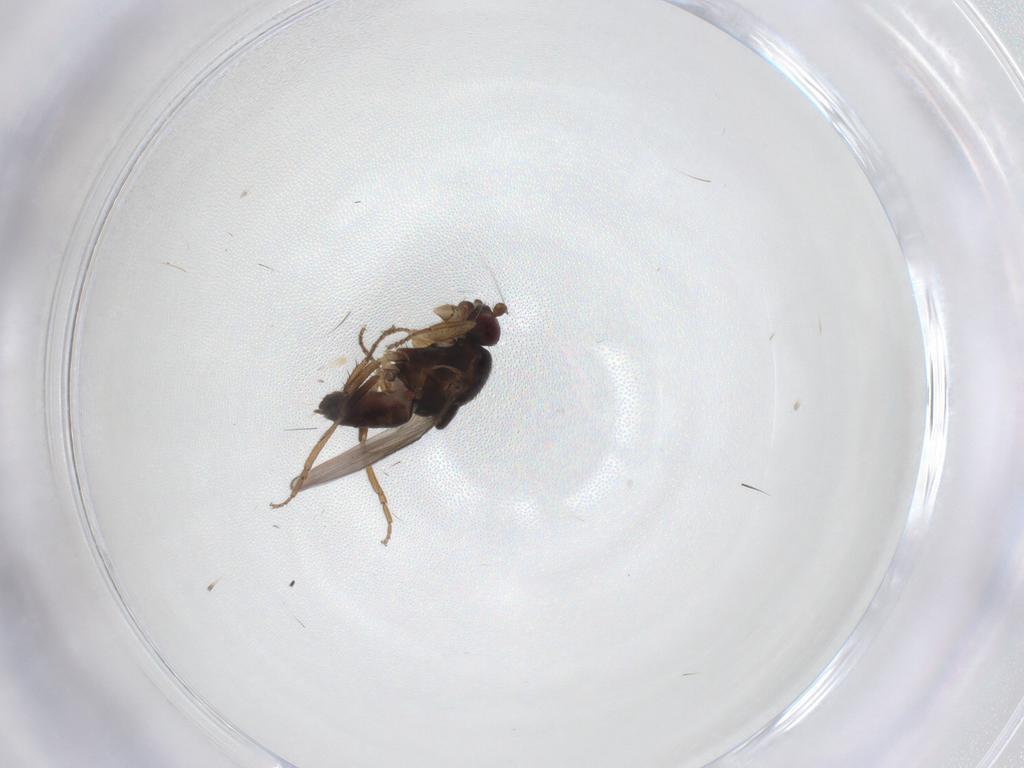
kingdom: Animalia
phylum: Arthropoda
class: Insecta
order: Diptera
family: Sphaeroceridae
